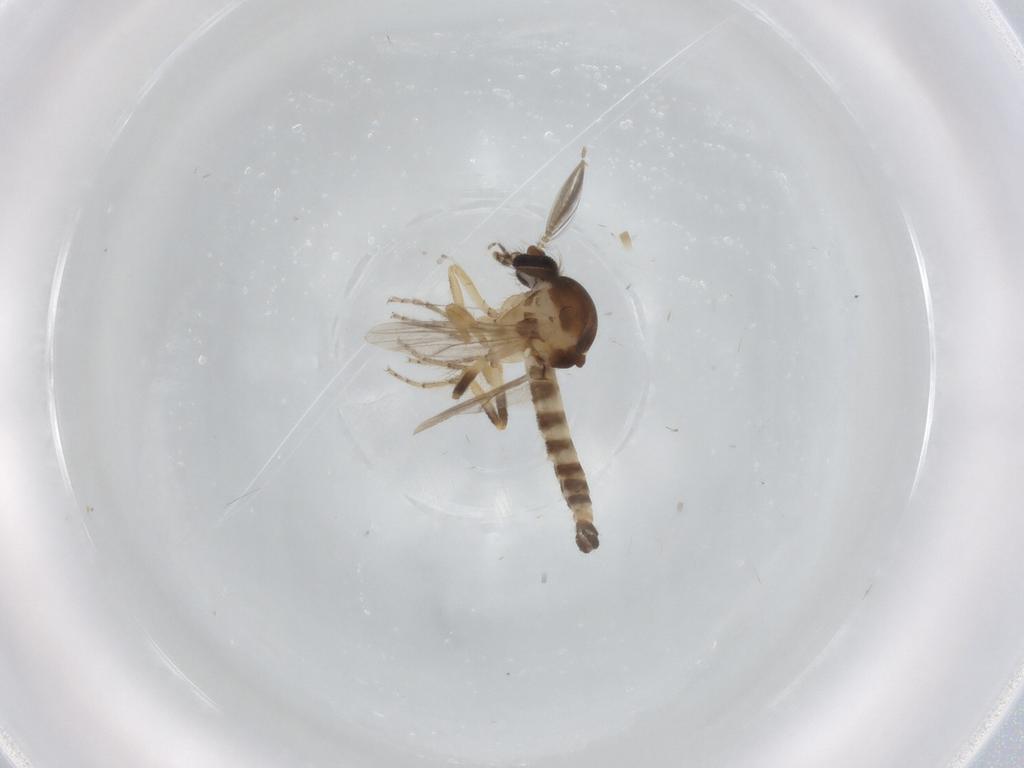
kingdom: Animalia
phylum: Arthropoda
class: Insecta
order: Diptera
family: Ceratopogonidae
